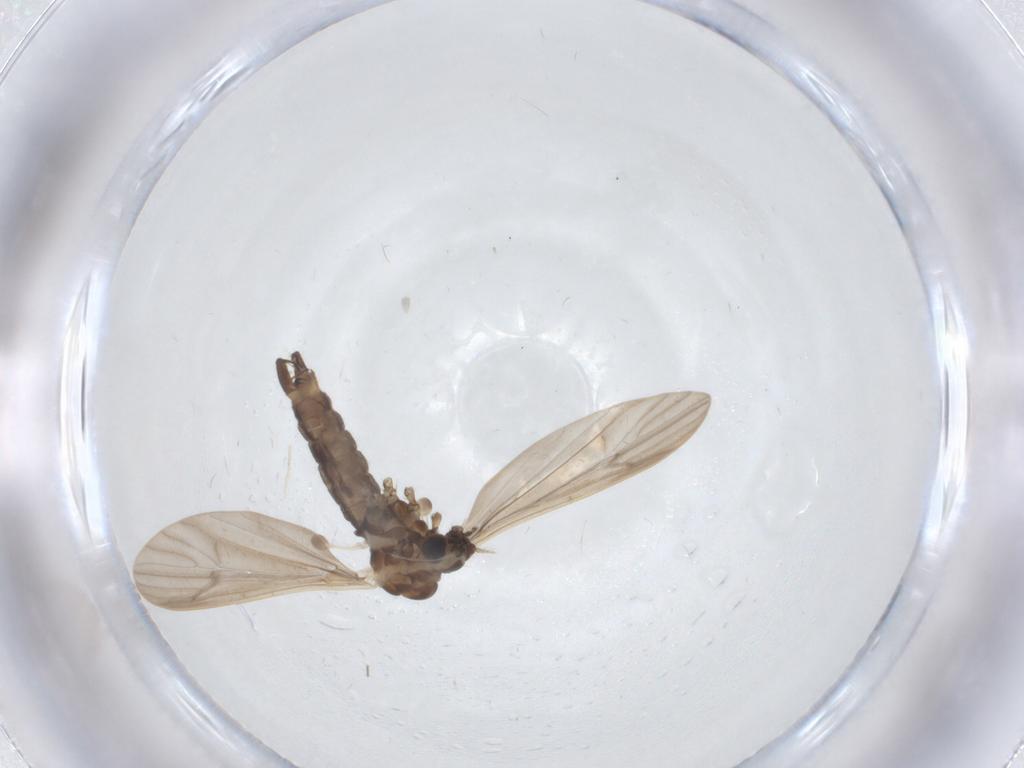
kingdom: Animalia
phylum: Arthropoda
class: Insecta
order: Diptera
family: Limoniidae
